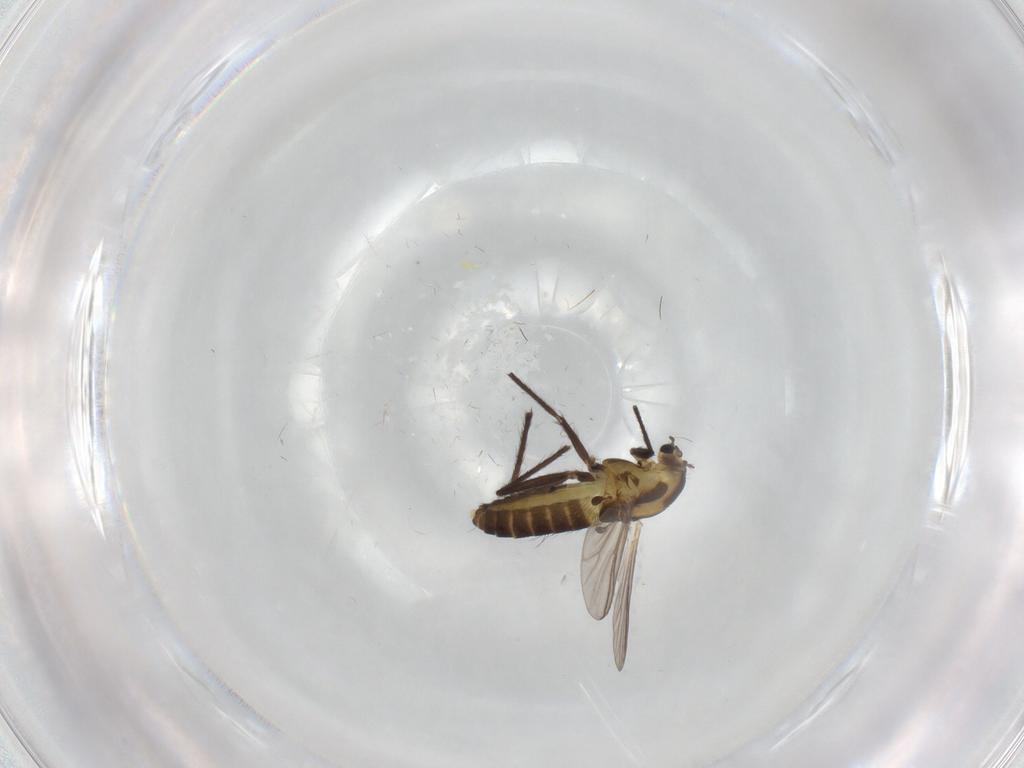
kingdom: Animalia
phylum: Arthropoda
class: Insecta
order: Diptera
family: Chironomidae
